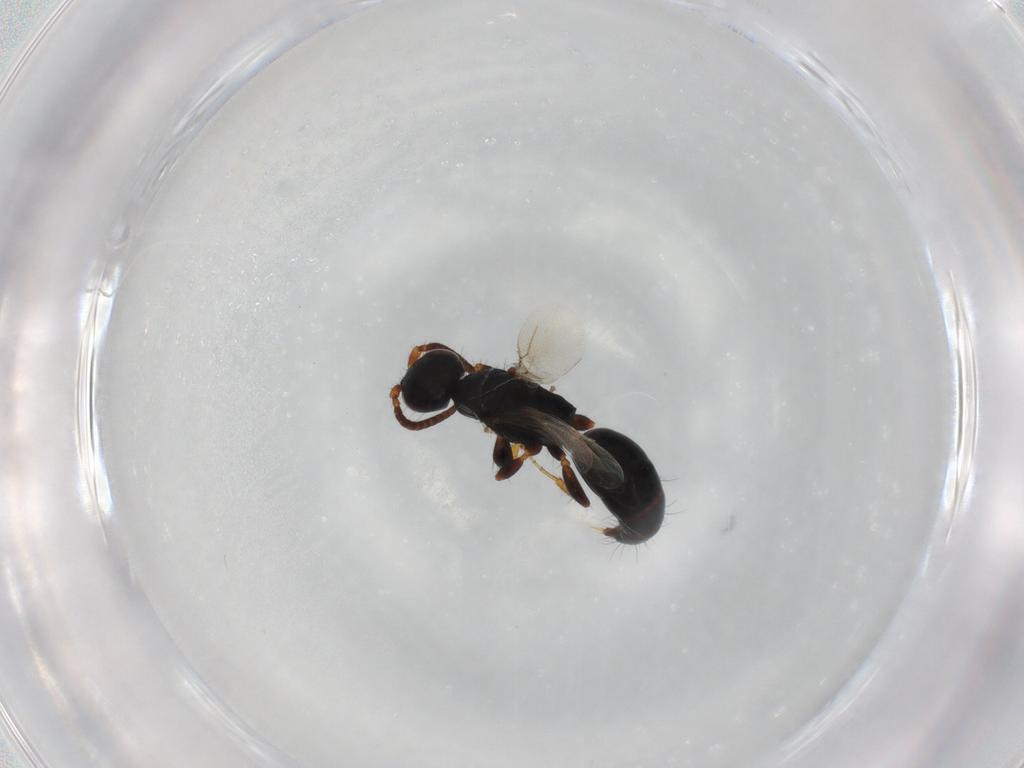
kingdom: Animalia
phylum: Arthropoda
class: Insecta
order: Hymenoptera
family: Bethylidae
